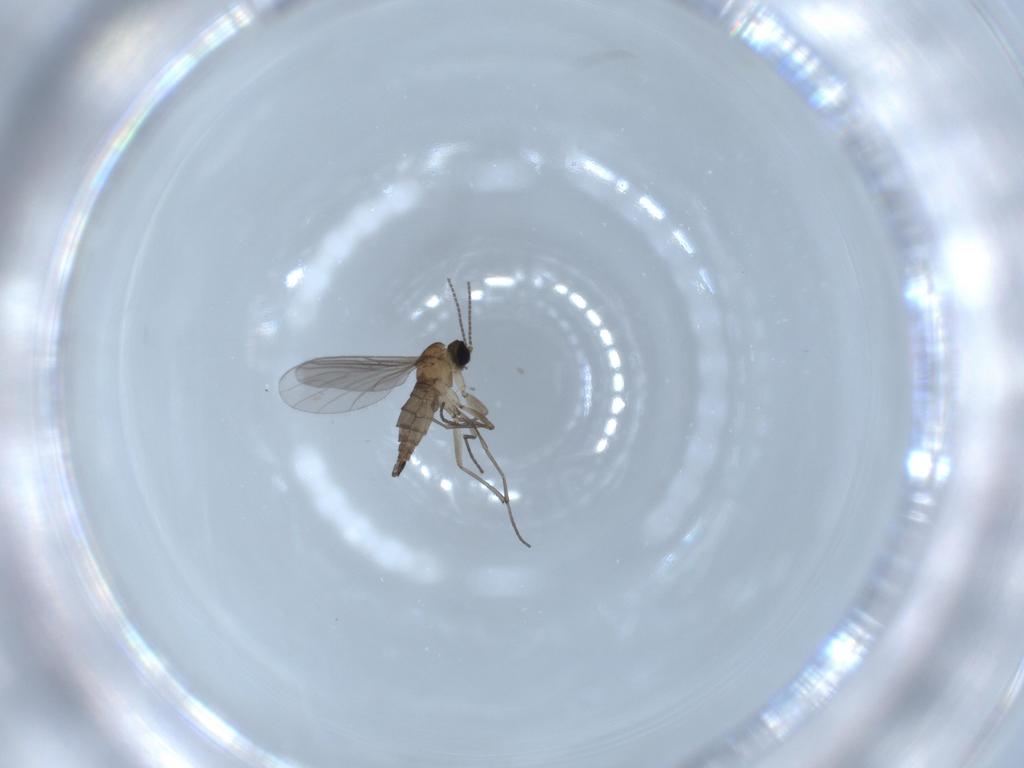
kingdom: Animalia
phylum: Arthropoda
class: Insecta
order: Diptera
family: Sciaridae
